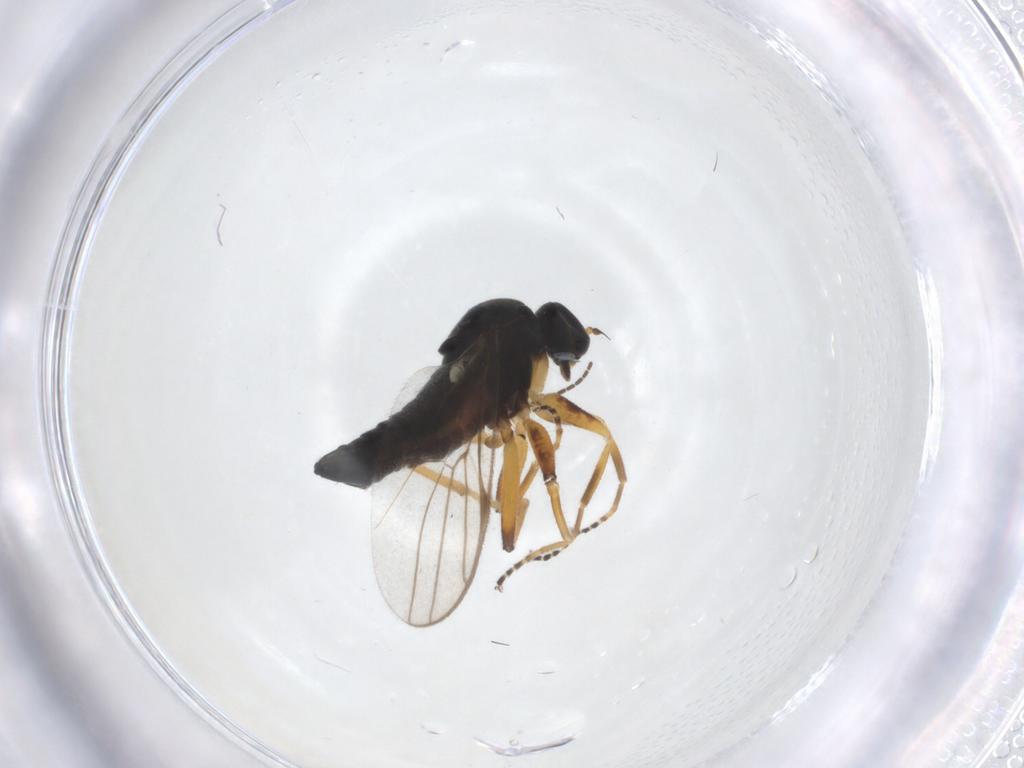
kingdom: Animalia
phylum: Arthropoda
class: Insecta
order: Diptera
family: Hybotidae
